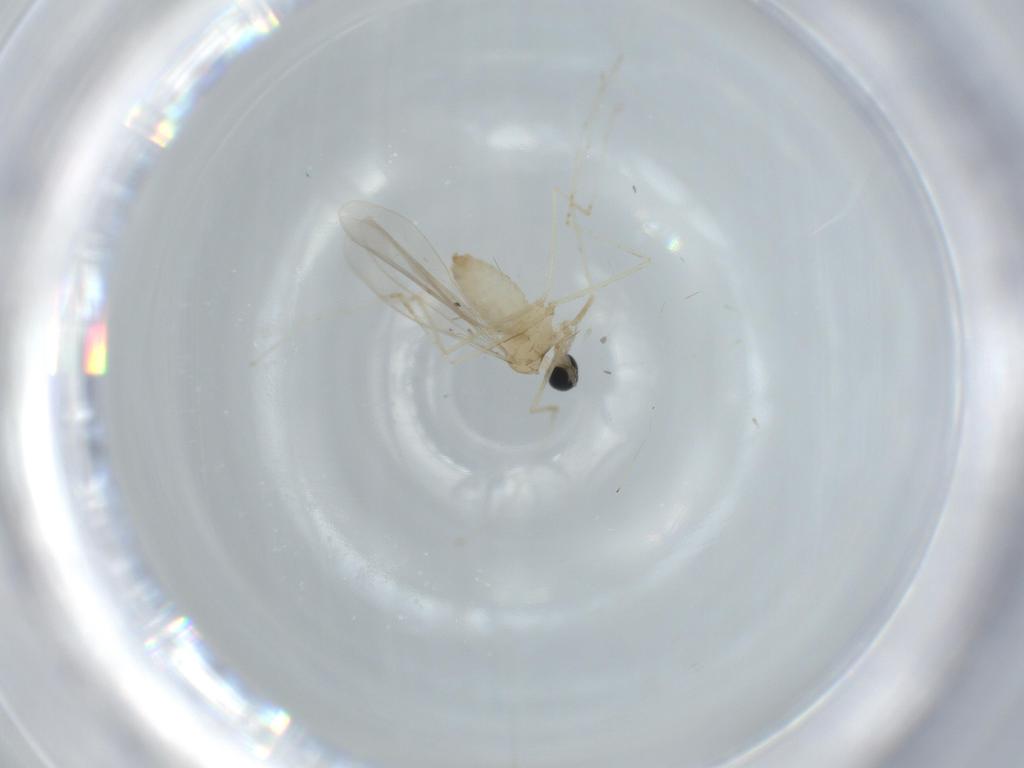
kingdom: Animalia
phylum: Arthropoda
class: Insecta
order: Diptera
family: Cecidomyiidae
